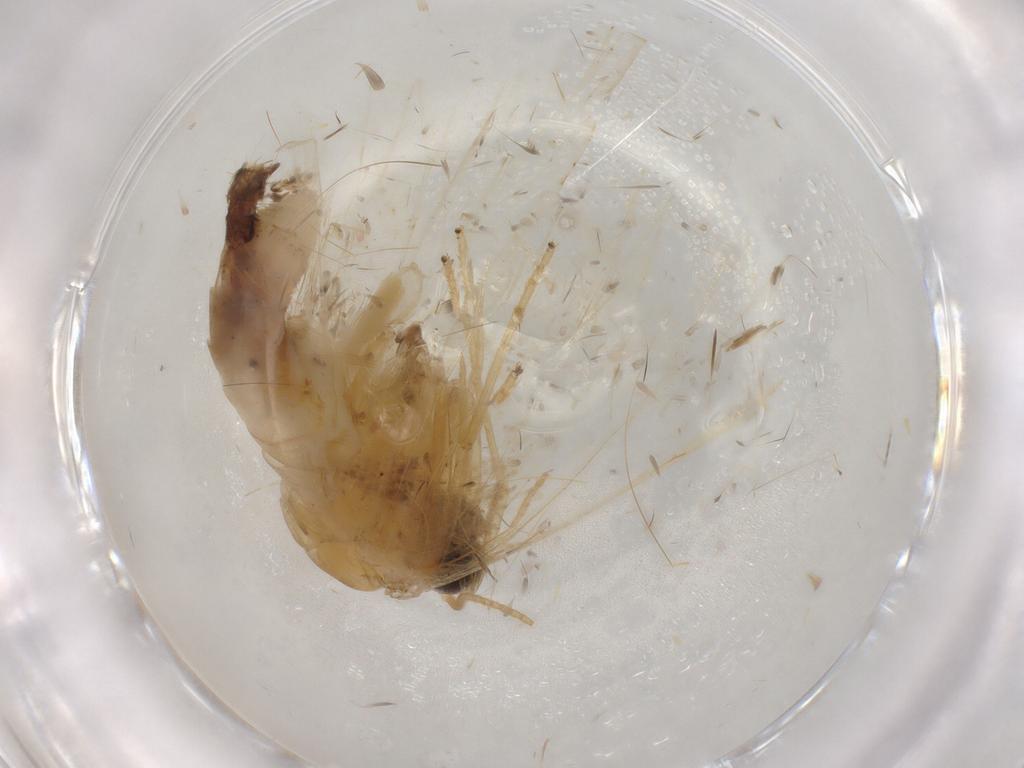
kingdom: Animalia
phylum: Arthropoda
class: Insecta
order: Lepidoptera
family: Geometridae
